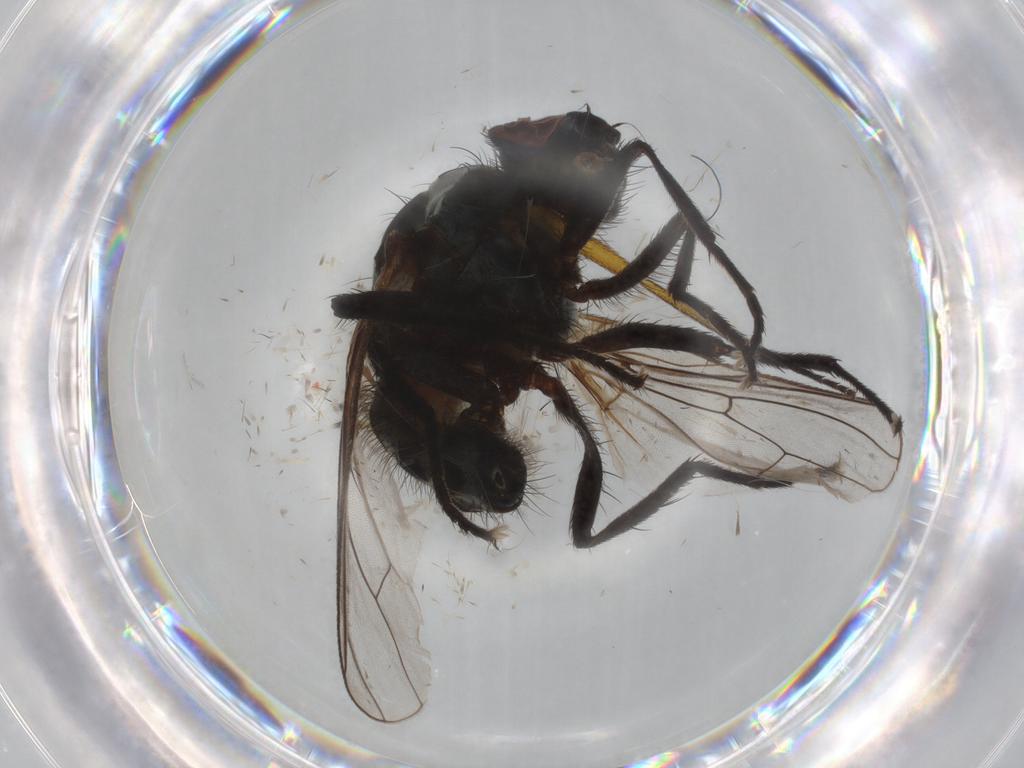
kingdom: Animalia
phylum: Arthropoda
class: Insecta
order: Diptera
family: Anthomyiidae
